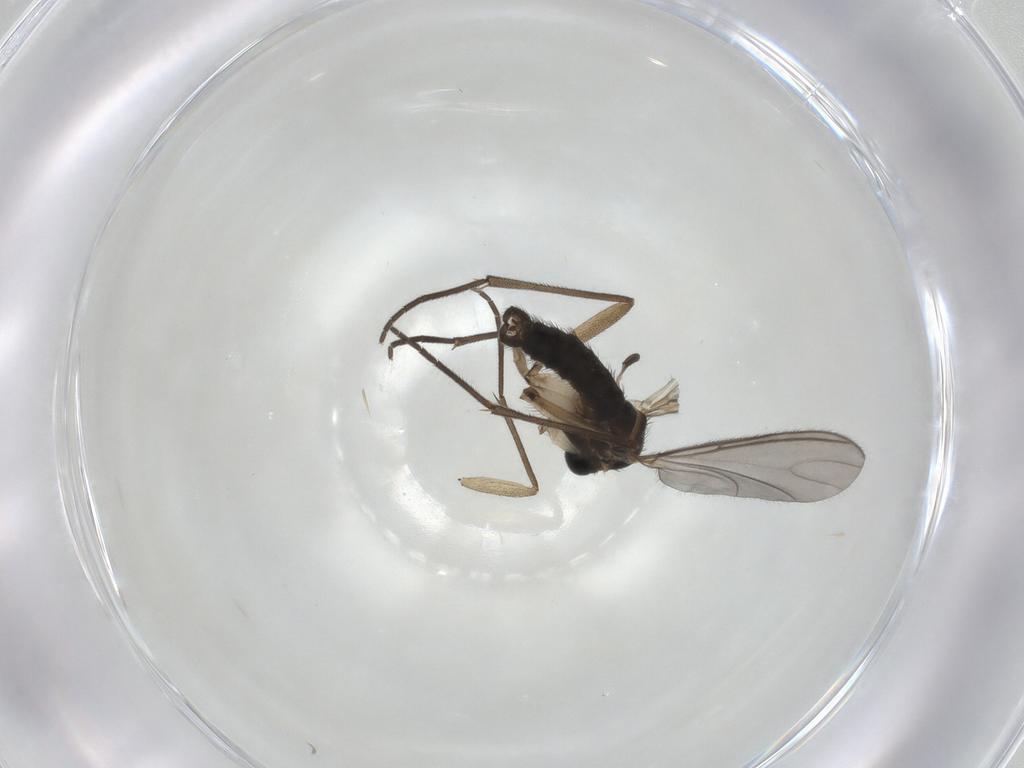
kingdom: Animalia
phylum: Arthropoda
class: Insecta
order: Diptera
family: Sciaridae
